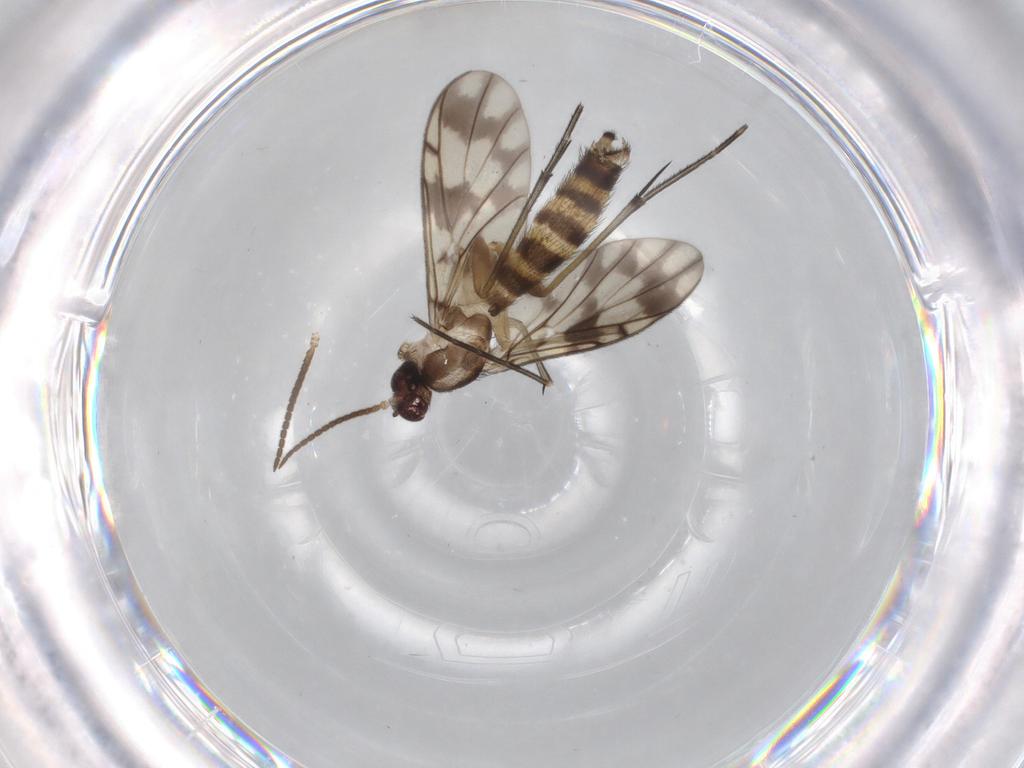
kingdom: Animalia
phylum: Arthropoda
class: Insecta
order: Diptera
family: Keroplatidae
